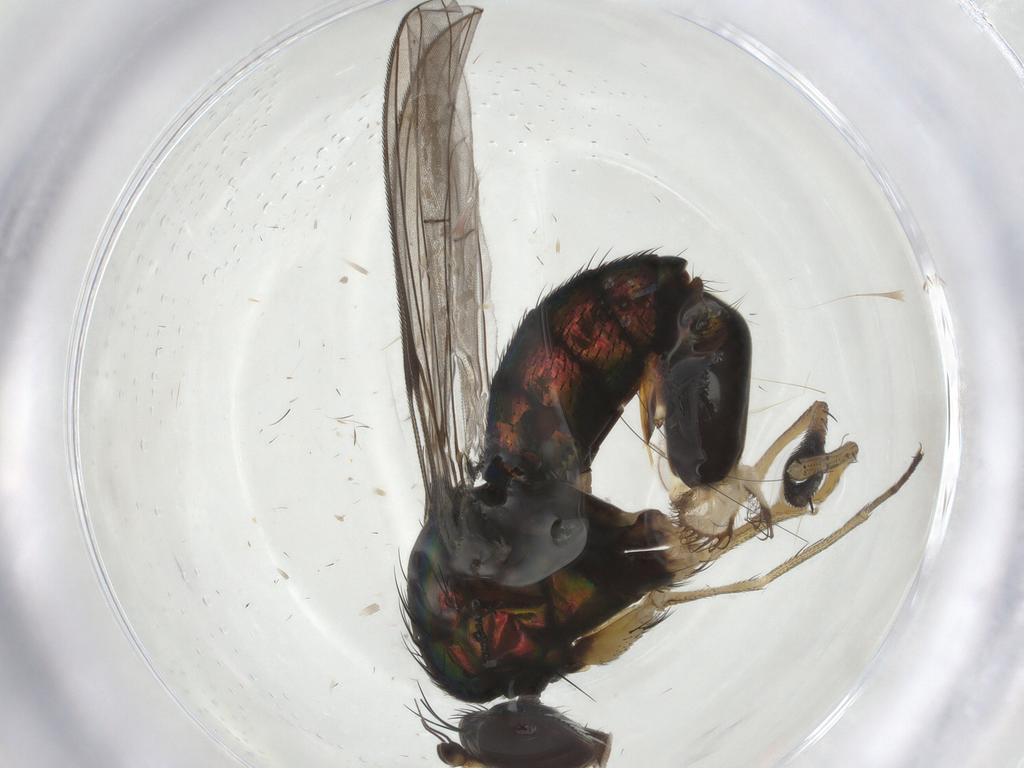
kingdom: Animalia
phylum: Arthropoda
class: Insecta
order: Diptera
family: Dolichopodidae
